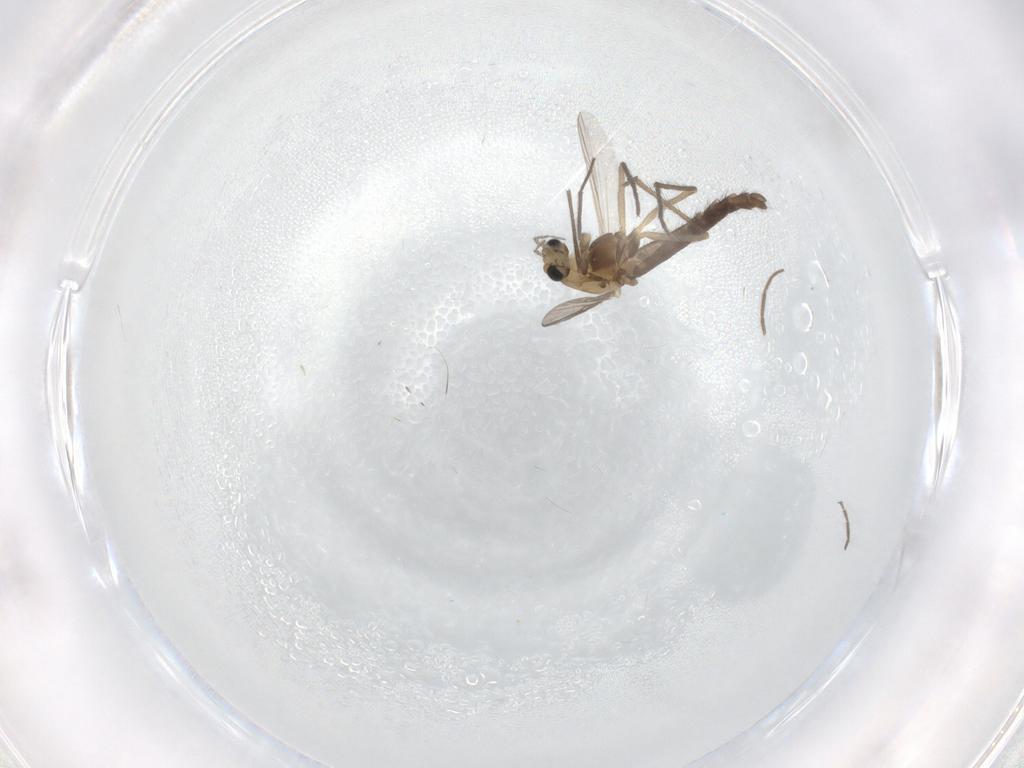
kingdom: Animalia
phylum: Arthropoda
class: Insecta
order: Diptera
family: Chironomidae
